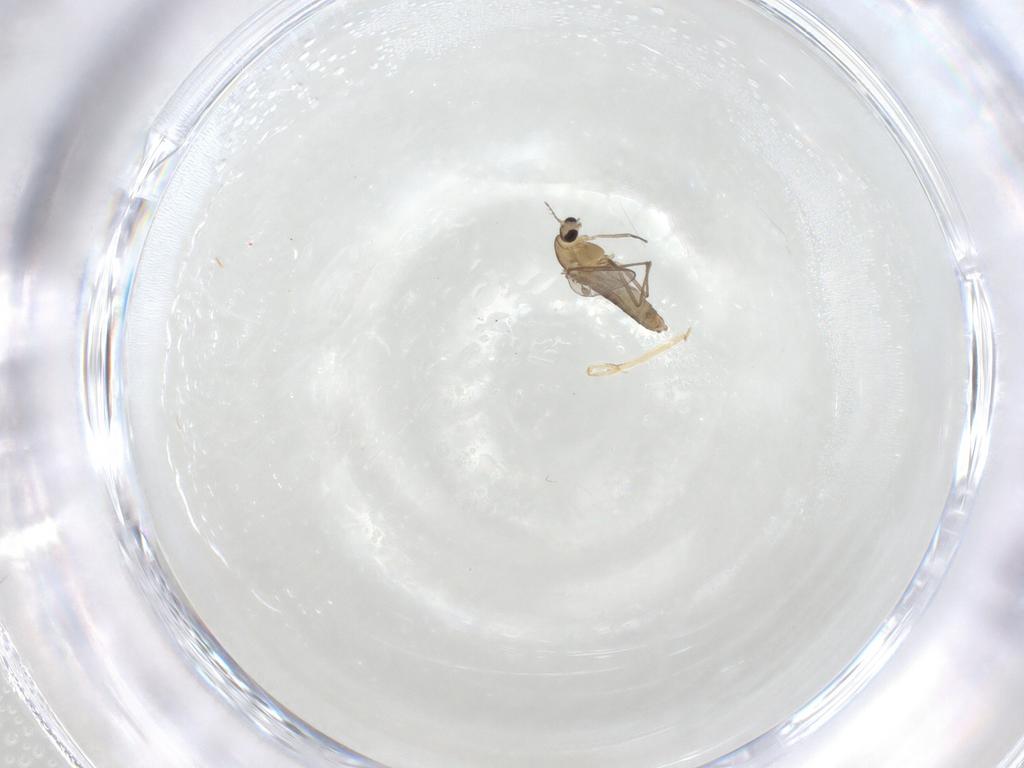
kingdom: Animalia
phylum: Arthropoda
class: Insecta
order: Diptera
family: Chironomidae
